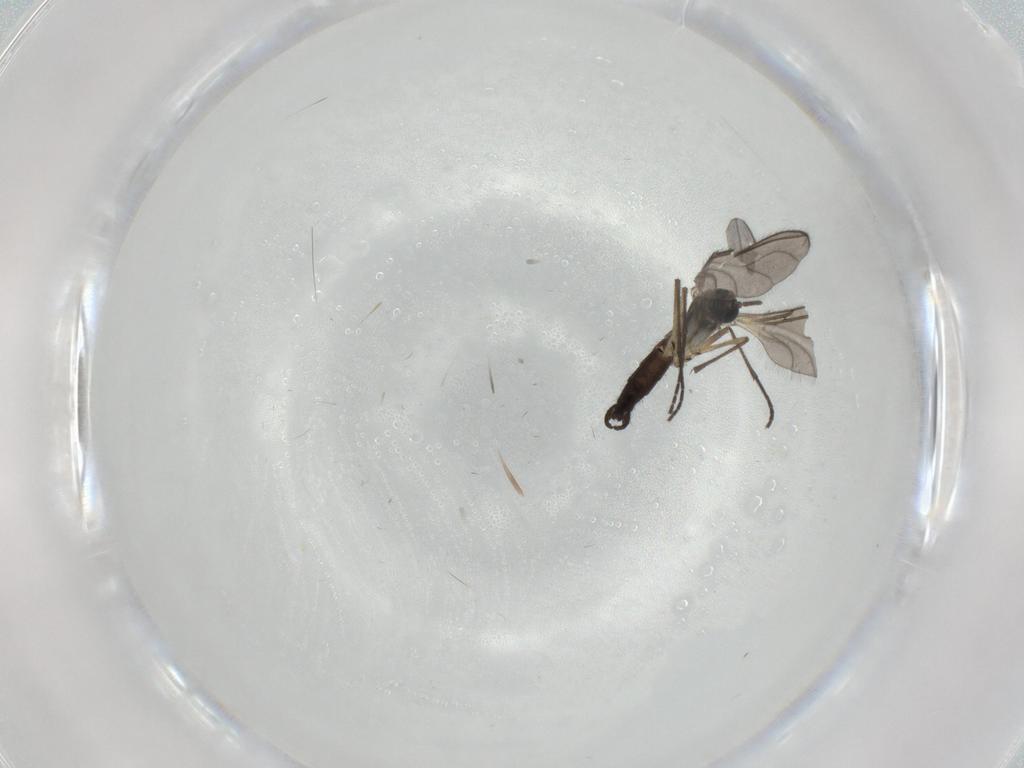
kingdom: Animalia
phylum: Arthropoda
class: Insecta
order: Diptera
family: Sciaridae
